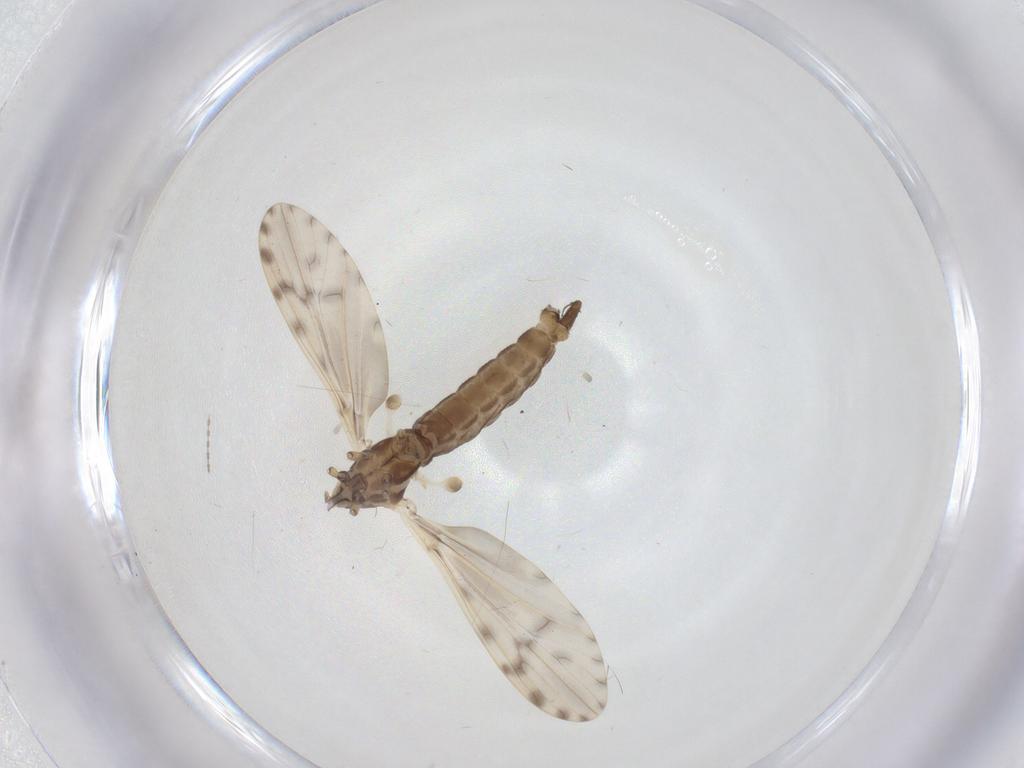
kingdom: Animalia
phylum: Arthropoda
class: Insecta
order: Diptera
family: Limoniidae
